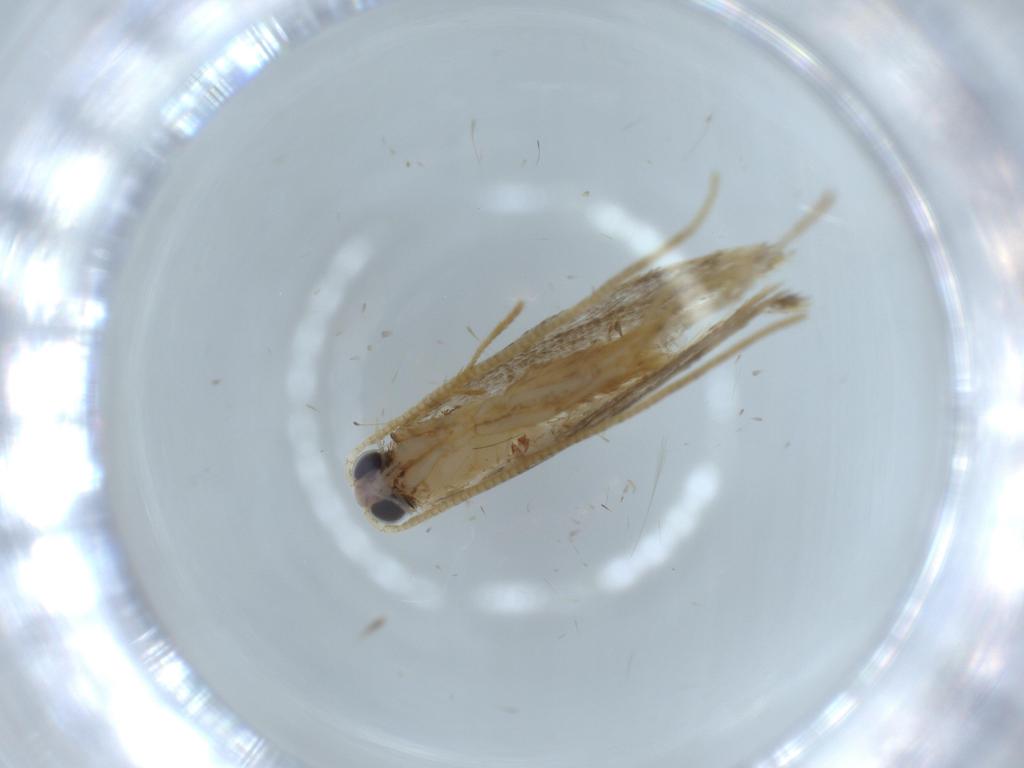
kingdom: Animalia
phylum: Arthropoda
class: Insecta
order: Lepidoptera
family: Tineidae
